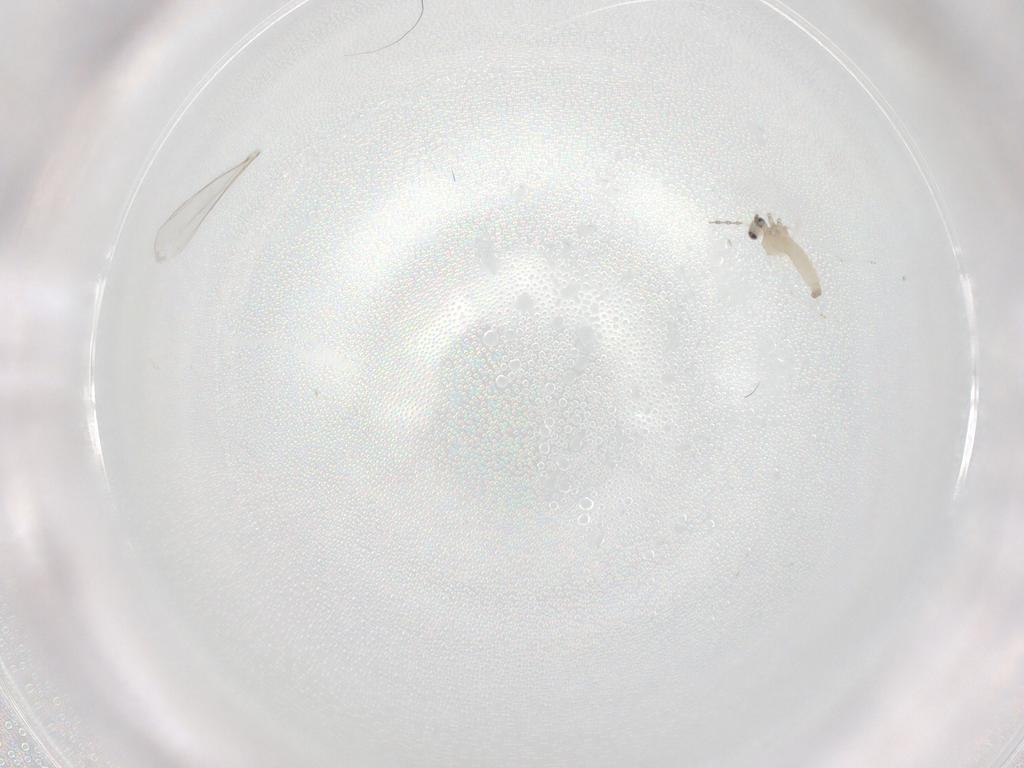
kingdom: Animalia
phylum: Arthropoda
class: Insecta
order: Diptera
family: Cecidomyiidae
